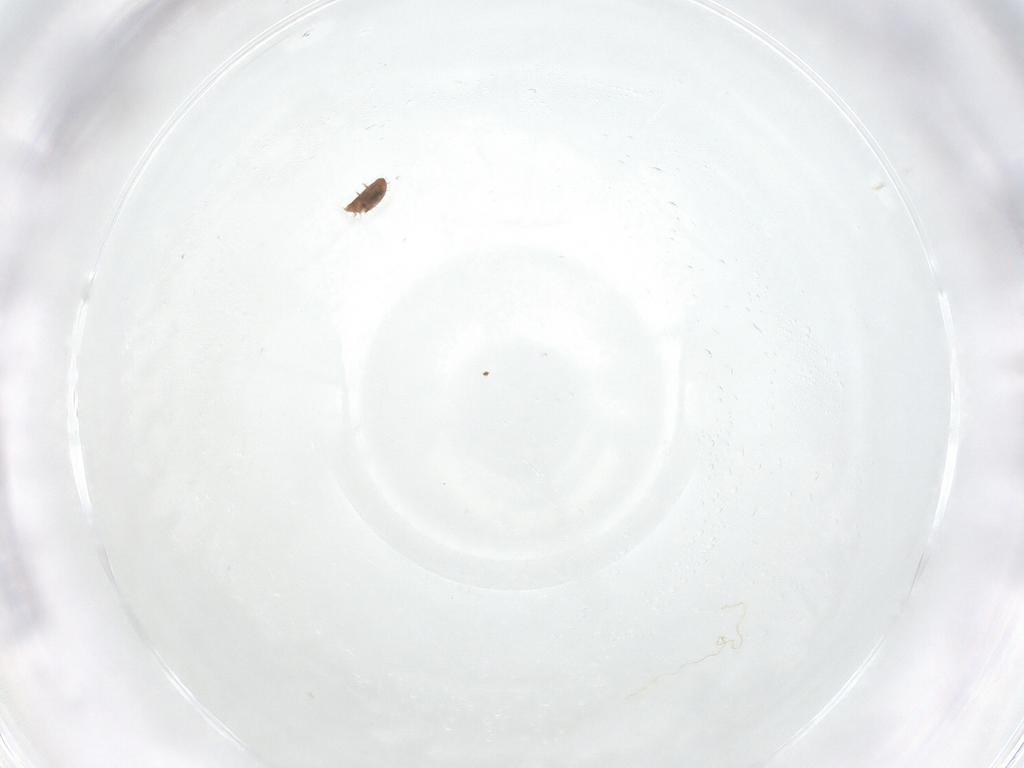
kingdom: Animalia
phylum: Arthropoda
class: Arachnida
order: Sarcoptiformes
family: Oribatulidae
